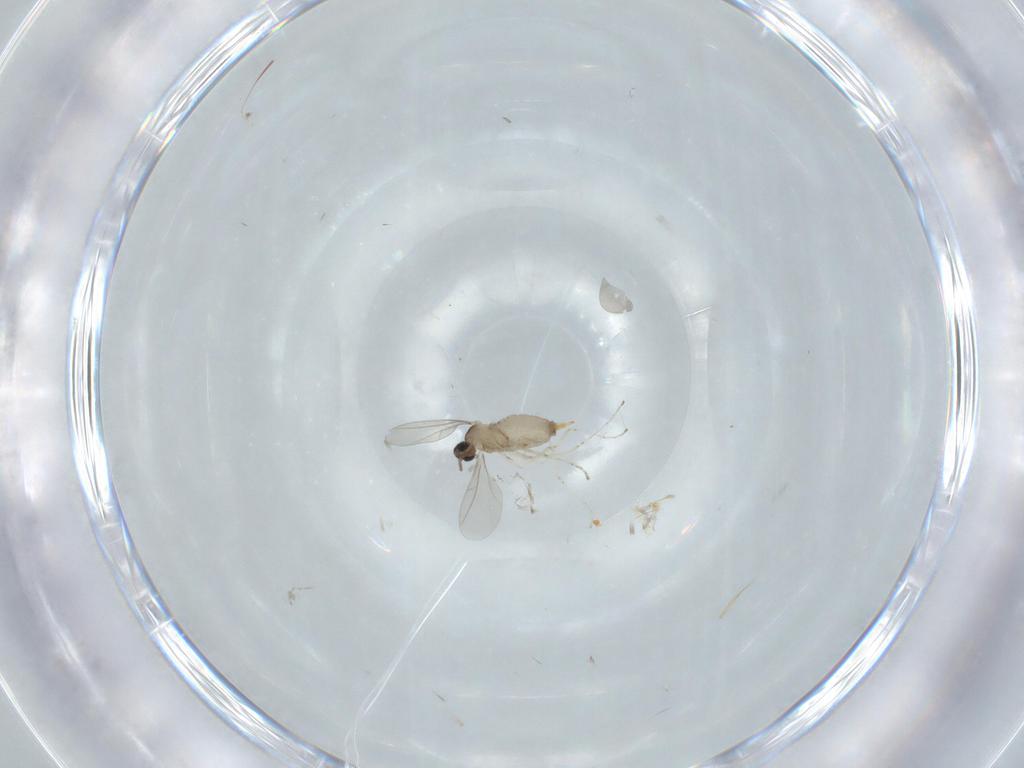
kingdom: Animalia
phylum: Arthropoda
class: Insecta
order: Diptera
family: Cecidomyiidae
